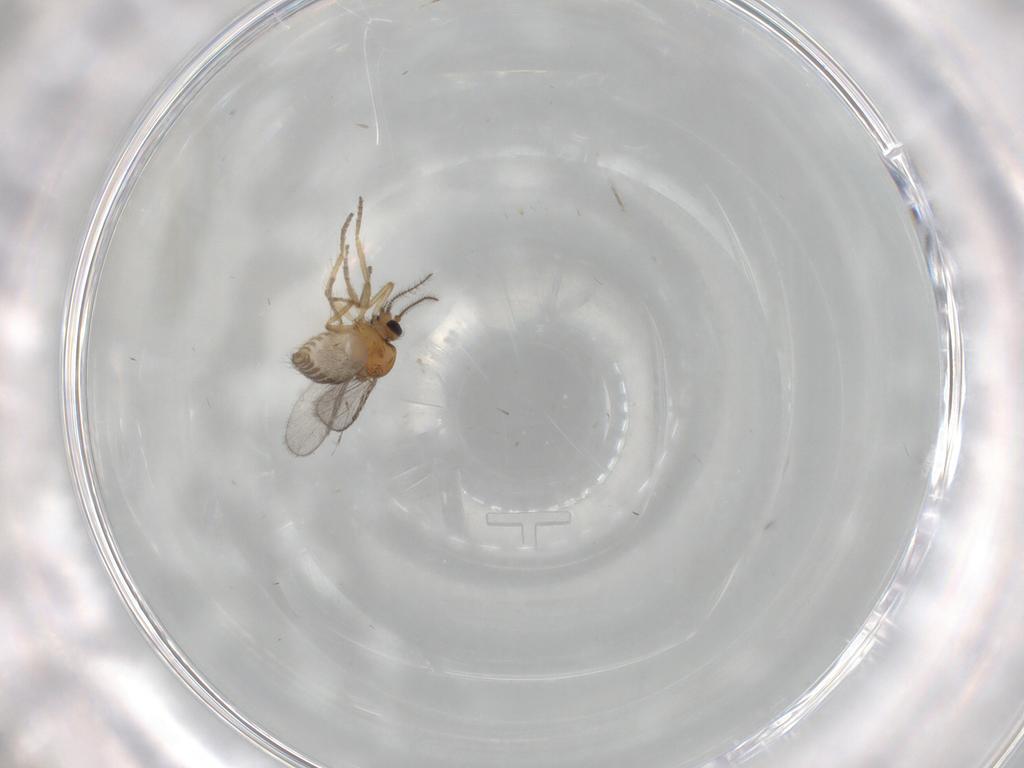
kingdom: Animalia
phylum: Arthropoda
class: Insecta
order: Diptera
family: Ceratopogonidae
